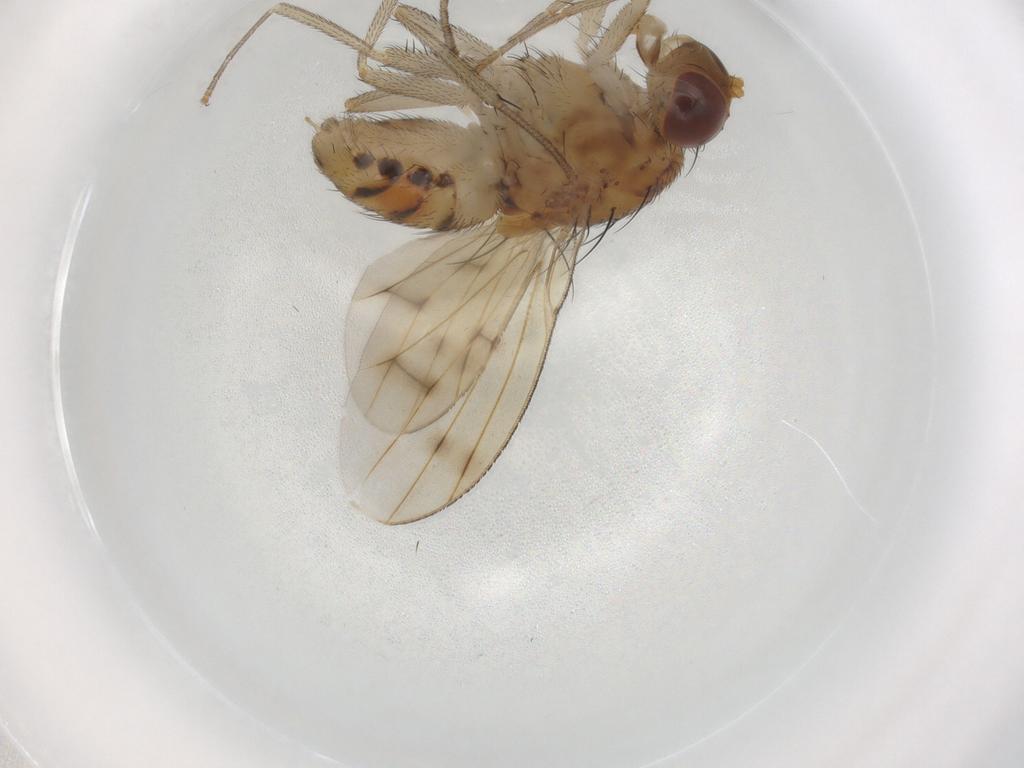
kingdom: Animalia
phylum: Arthropoda
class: Insecta
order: Diptera
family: Chironomidae
